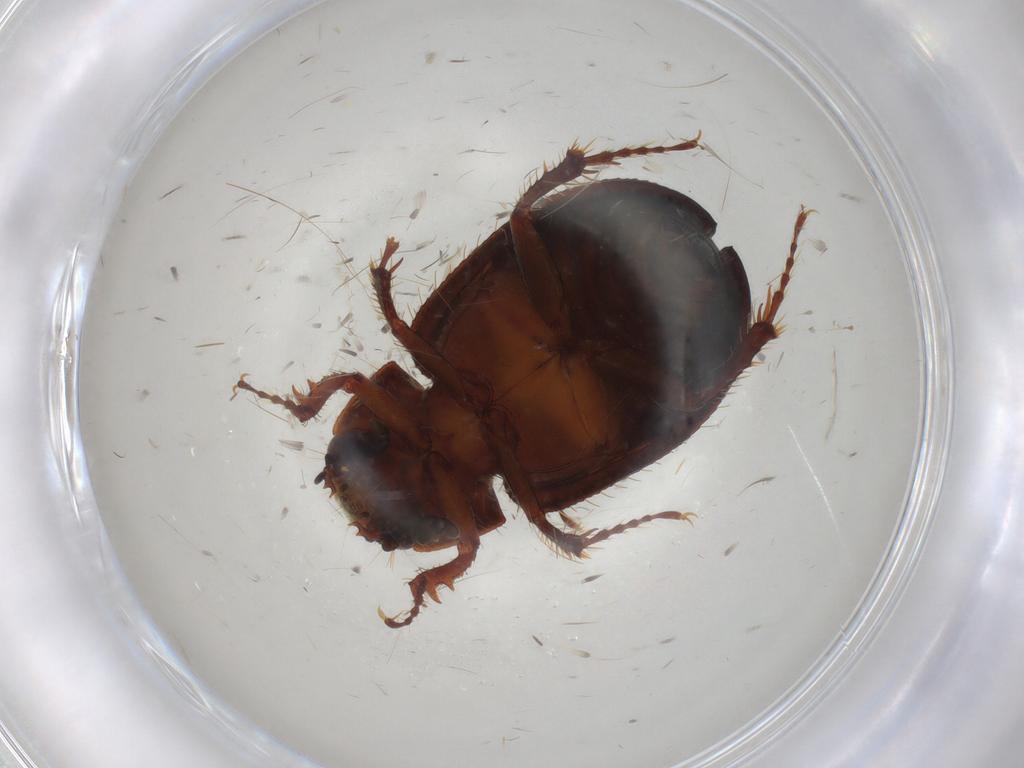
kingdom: Animalia
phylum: Arthropoda
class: Insecta
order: Coleoptera
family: Hybosoridae
